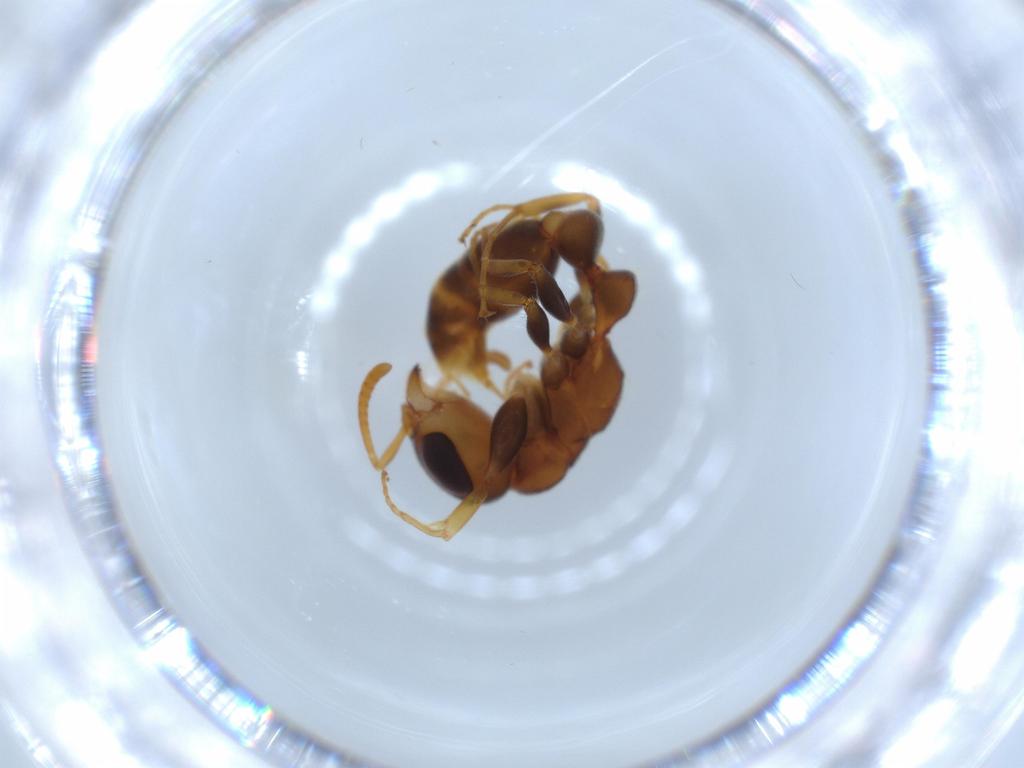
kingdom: Animalia
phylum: Arthropoda
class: Insecta
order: Hymenoptera
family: Formicidae
